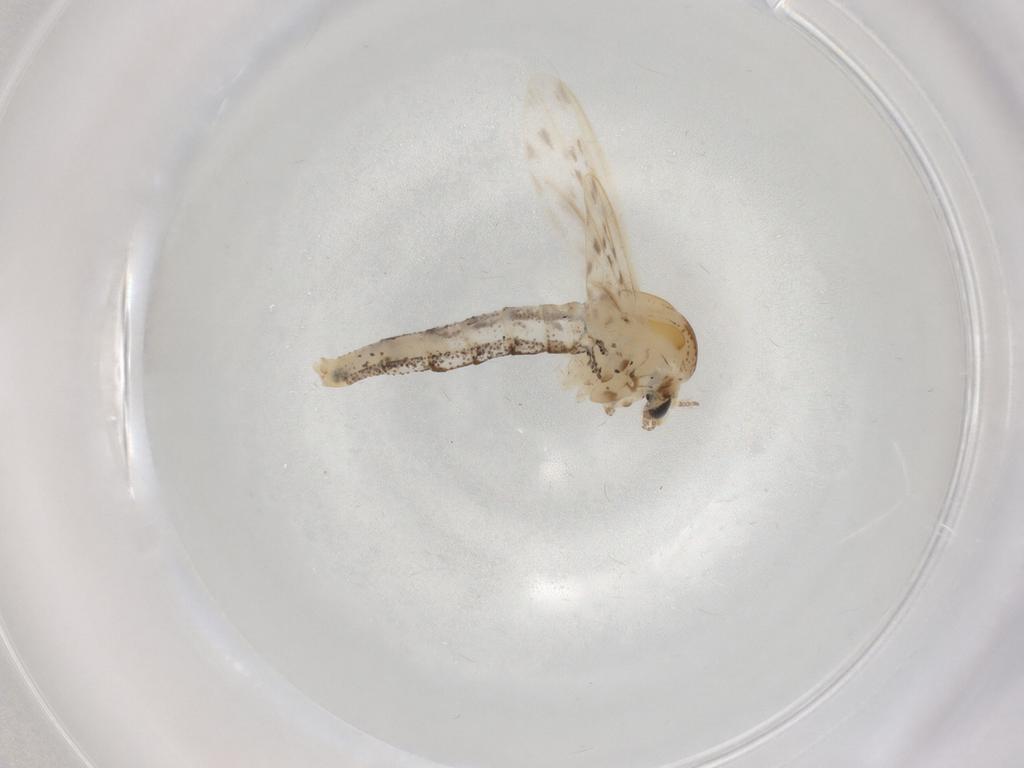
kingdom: Animalia
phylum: Arthropoda
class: Insecta
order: Diptera
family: Chaoboridae
